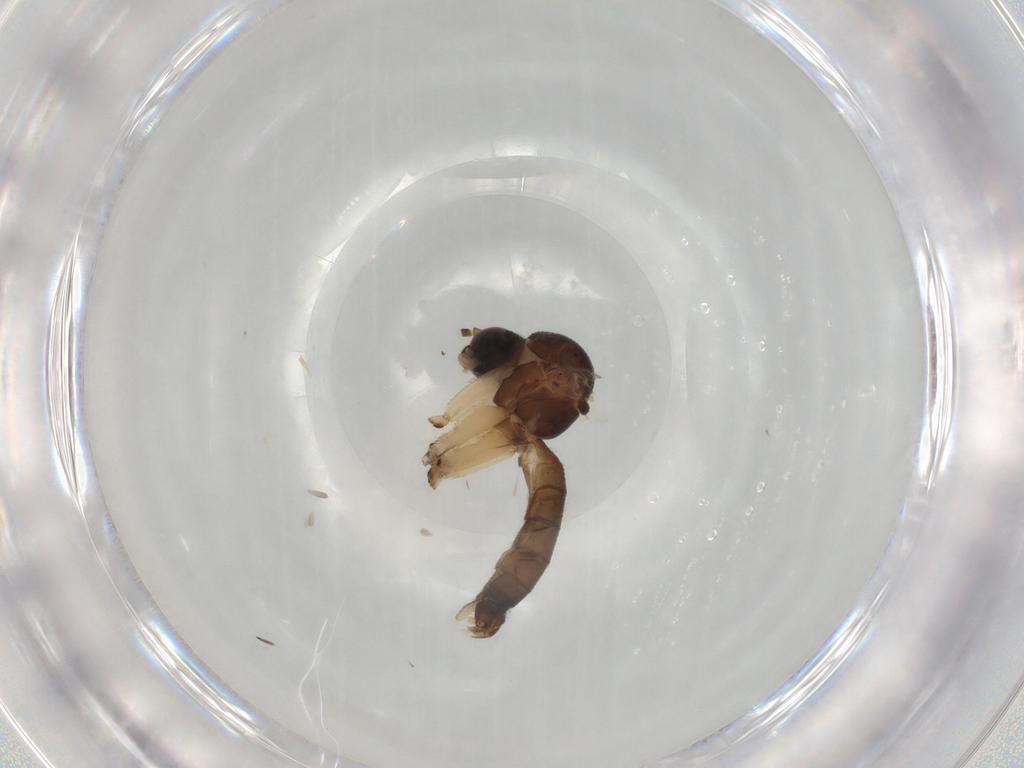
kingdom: Animalia
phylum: Arthropoda
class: Insecta
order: Diptera
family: Mycetophilidae
